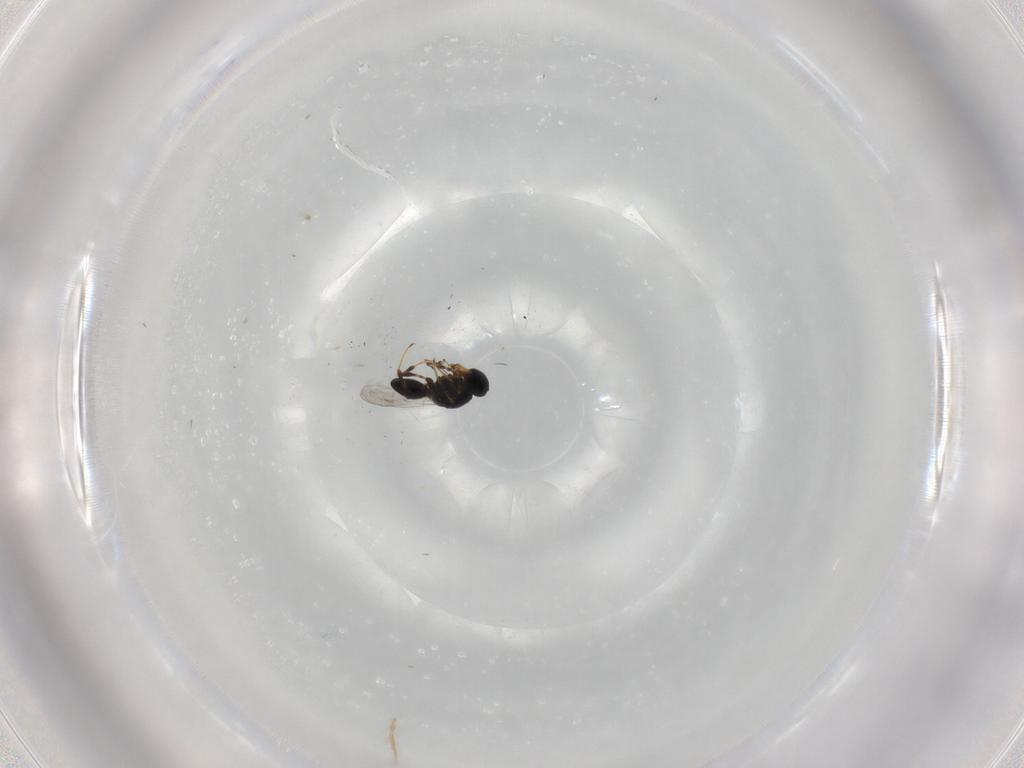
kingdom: Animalia
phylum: Arthropoda
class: Insecta
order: Hymenoptera
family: Platygastridae
